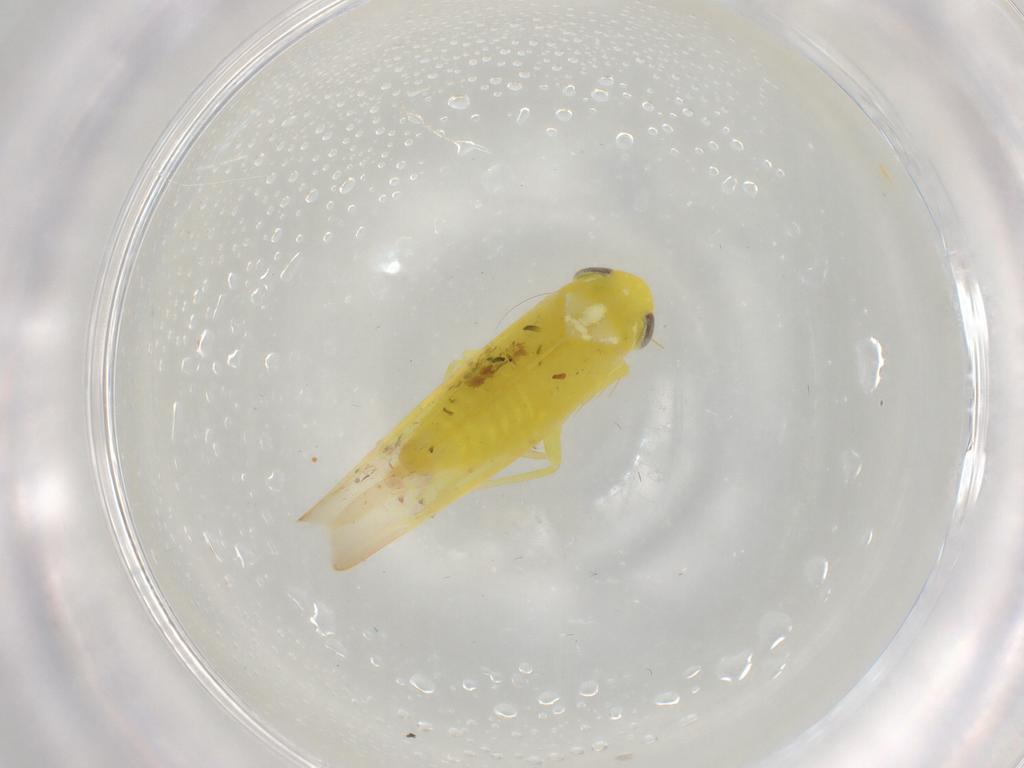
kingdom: Animalia
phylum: Arthropoda
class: Insecta
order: Hemiptera
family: Cicadellidae
